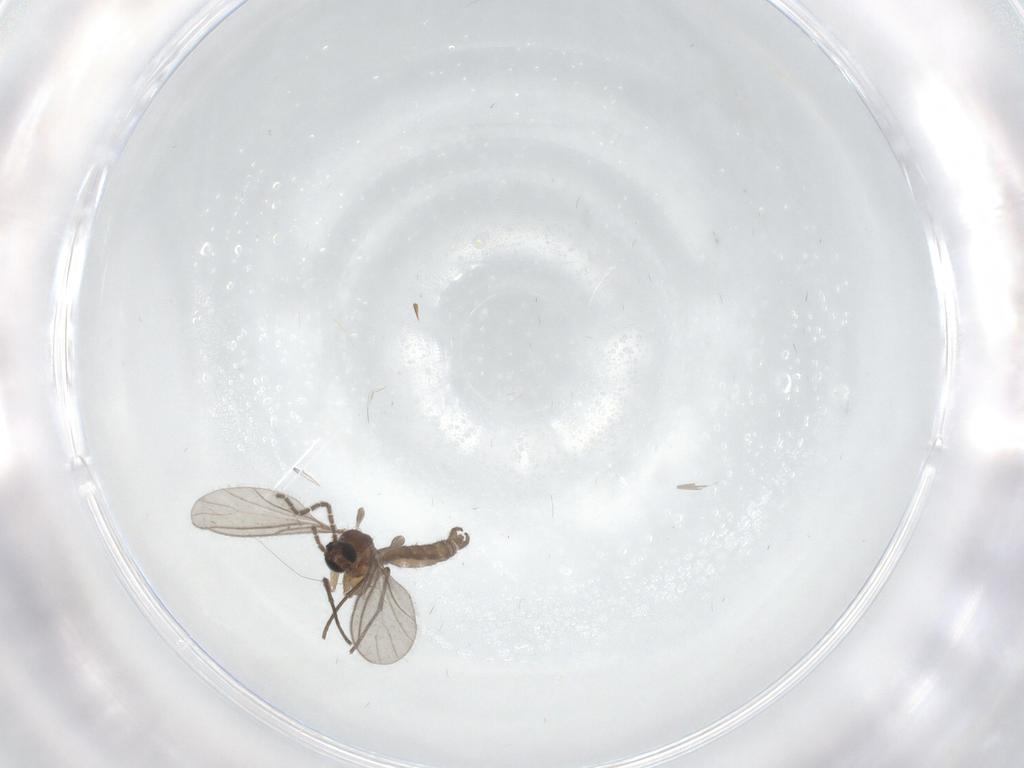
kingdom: Animalia
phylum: Arthropoda
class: Insecta
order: Diptera
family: Sciaridae
